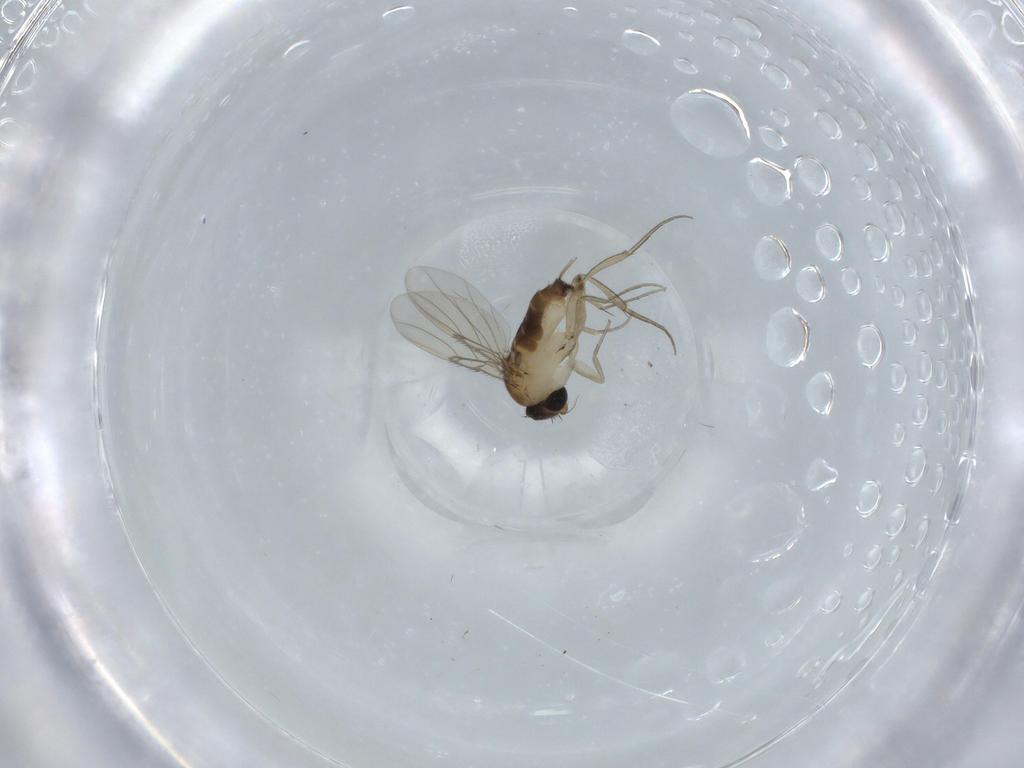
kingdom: Animalia
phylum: Arthropoda
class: Insecta
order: Diptera
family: Phoridae
